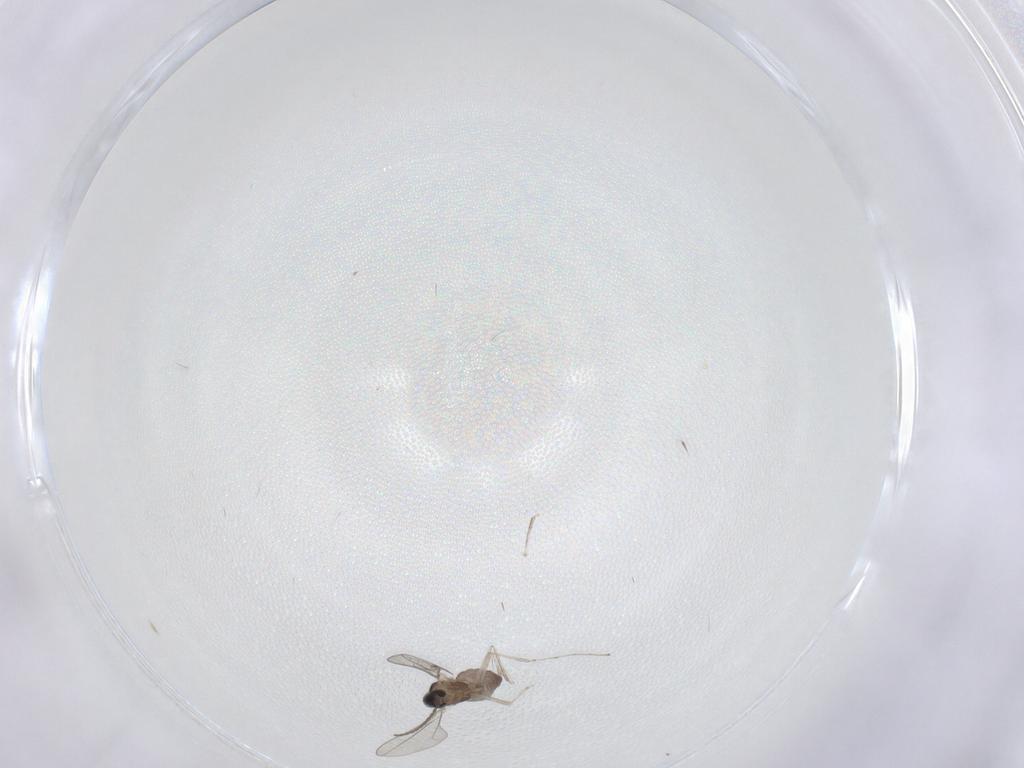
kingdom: Animalia
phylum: Arthropoda
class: Insecta
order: Diptera
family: Cecidomyiidae
